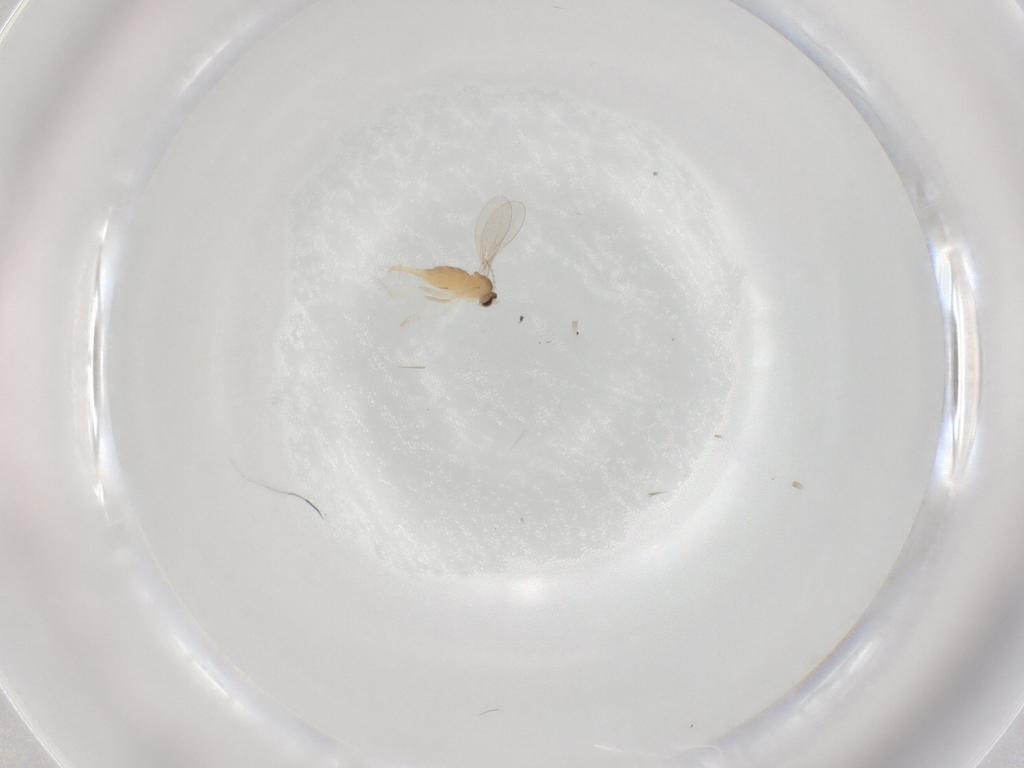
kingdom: Animalia
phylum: Arthropoda
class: Insecta
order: Diptera
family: Cecidomyiidae
